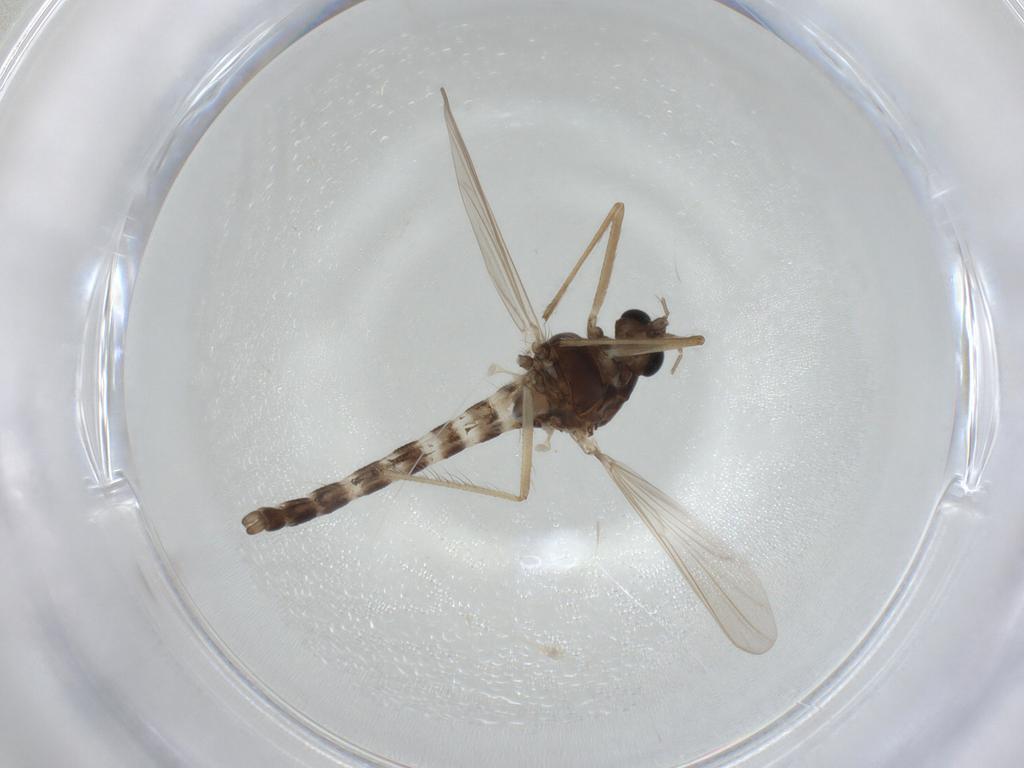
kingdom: Animalia
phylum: Arthropoda
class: Insecta
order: Diptera
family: Chironomidae
